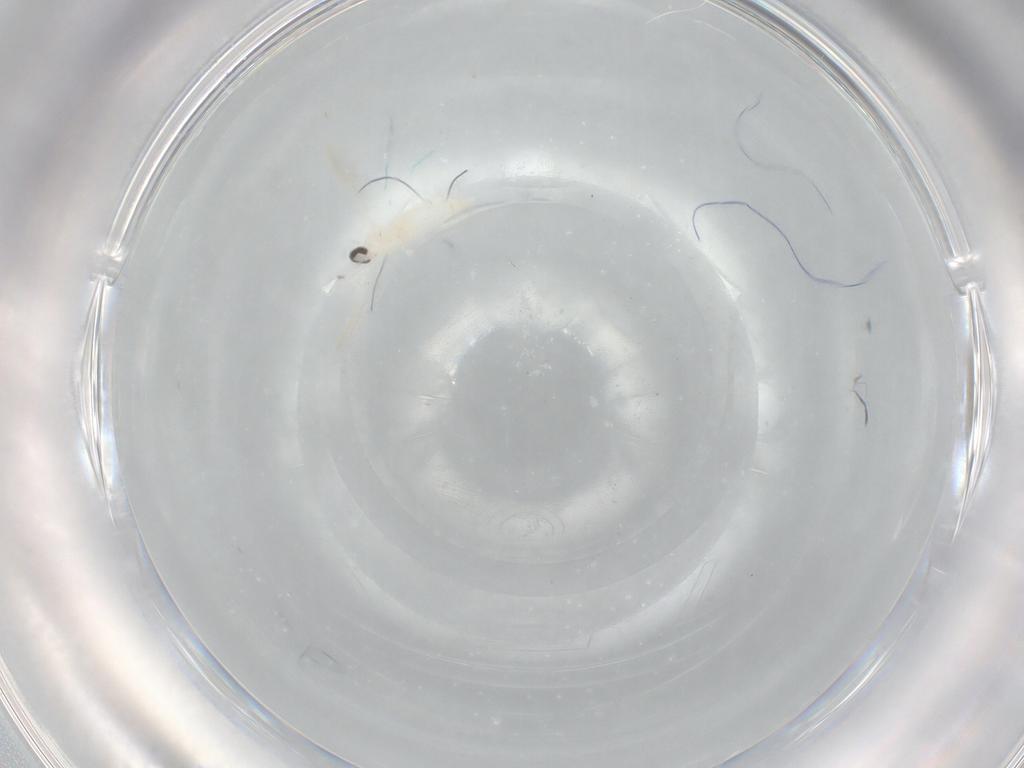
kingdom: Animalia
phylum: Arthropoda
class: Insecta
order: Diptera
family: Cecidomyiidae
